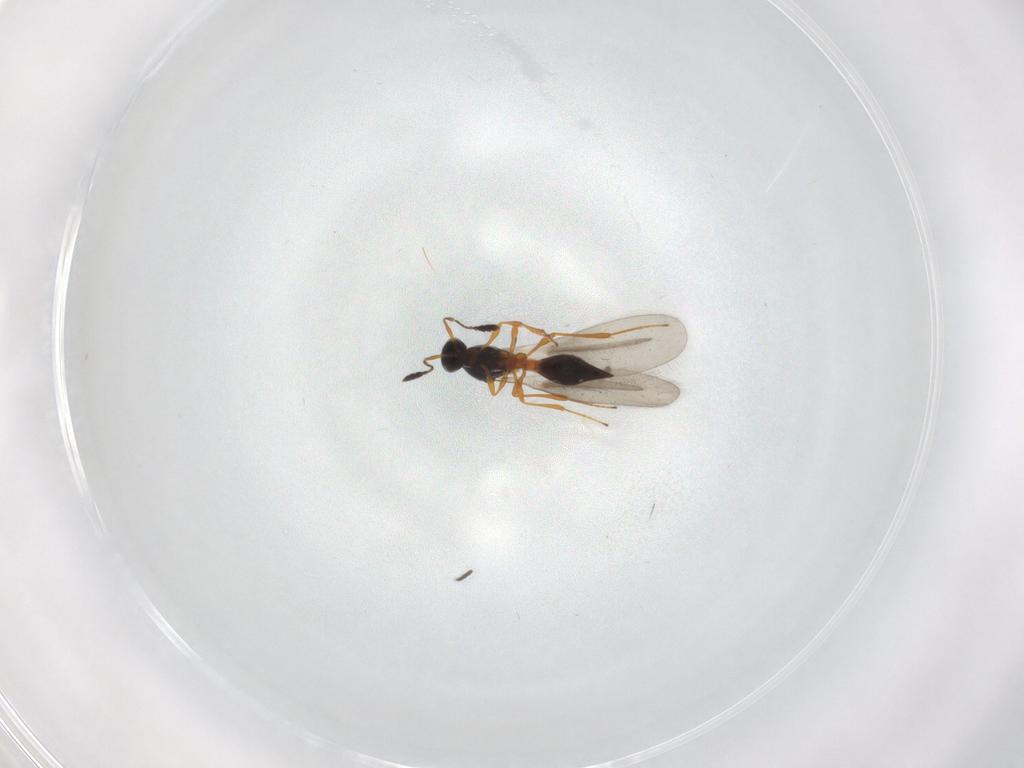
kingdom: Animalia
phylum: Arthropoda
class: Insecta
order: Hymenoptera
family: Platygastridae
